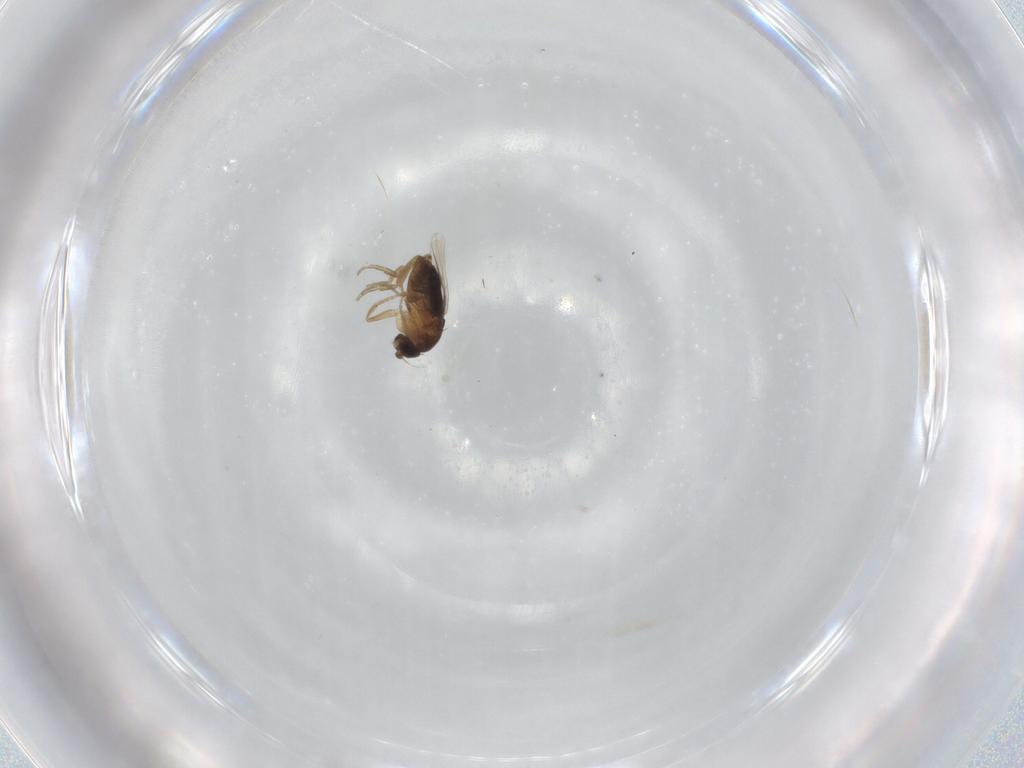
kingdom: Animalia
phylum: Arthropoda
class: Insecta
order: Diptera
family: Phoridae
